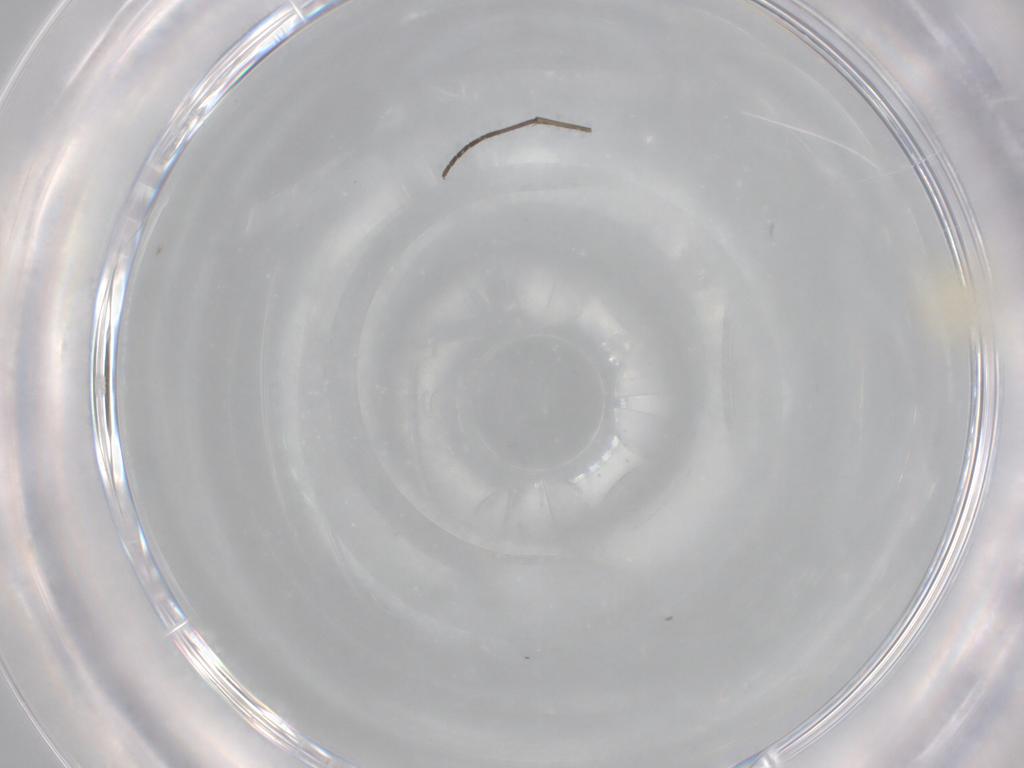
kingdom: Animalia
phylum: Arthropoda
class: Insecta
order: Hemiptera
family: Aleyrodidae
